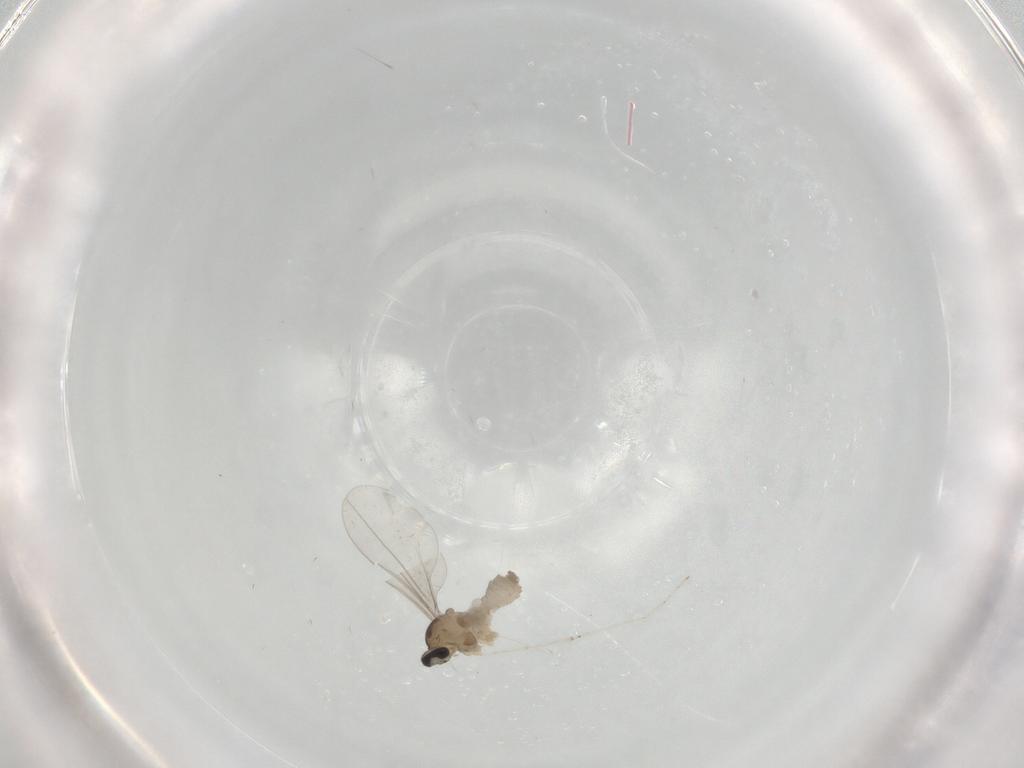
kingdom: Animalia
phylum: Arthropoda
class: Insecta
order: Diptera
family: Cecidomyiidae
